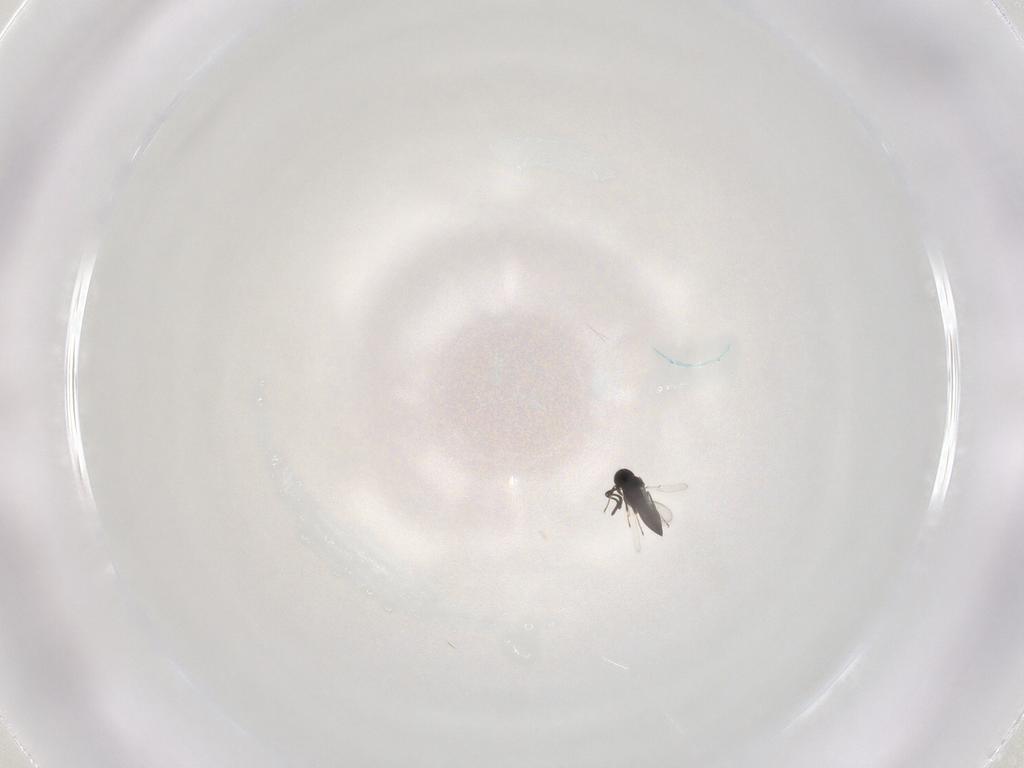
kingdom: Animalia
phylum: Arthropoda
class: Insecta
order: Hymenoptera
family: Scelionidae
